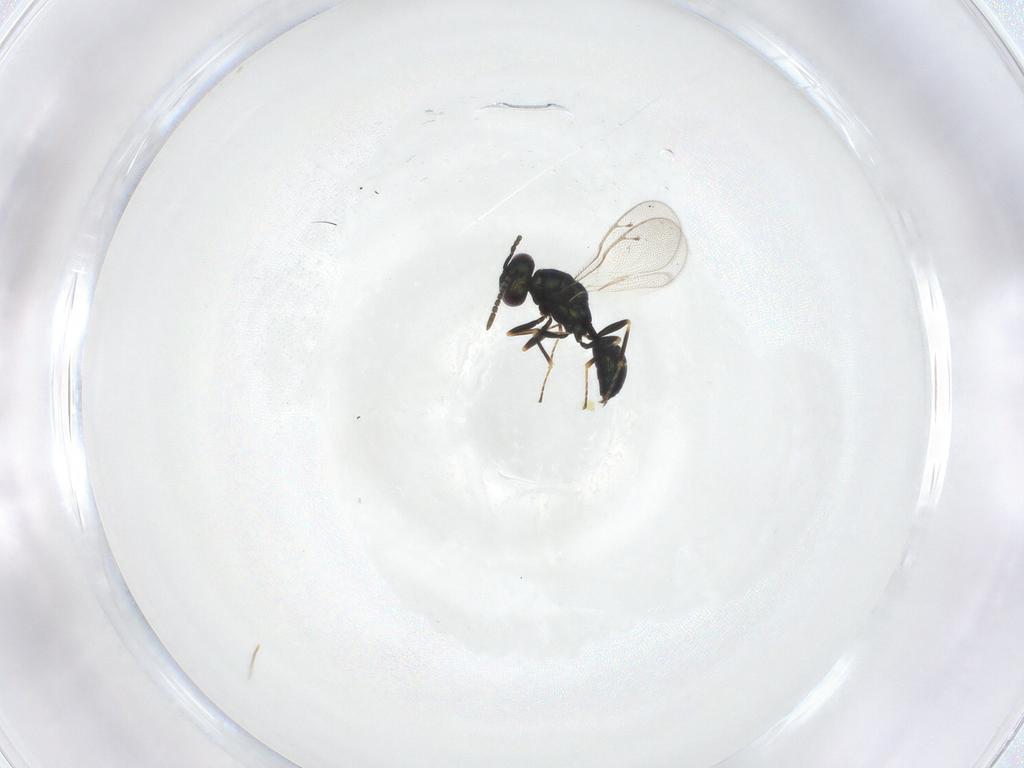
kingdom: Animalia
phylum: Arthropoda
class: Insecta
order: Hymenoptera
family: Pteromalidae
